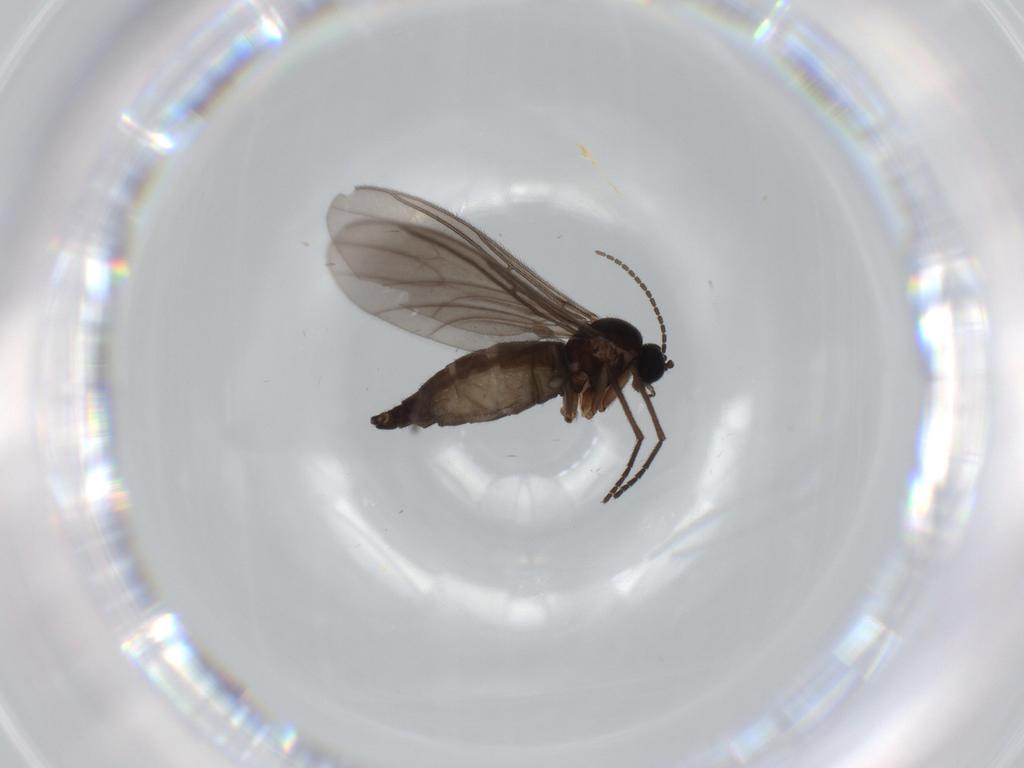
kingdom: Animalia
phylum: Arthropoda
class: Insecta
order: Diptera
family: Sciaridae
